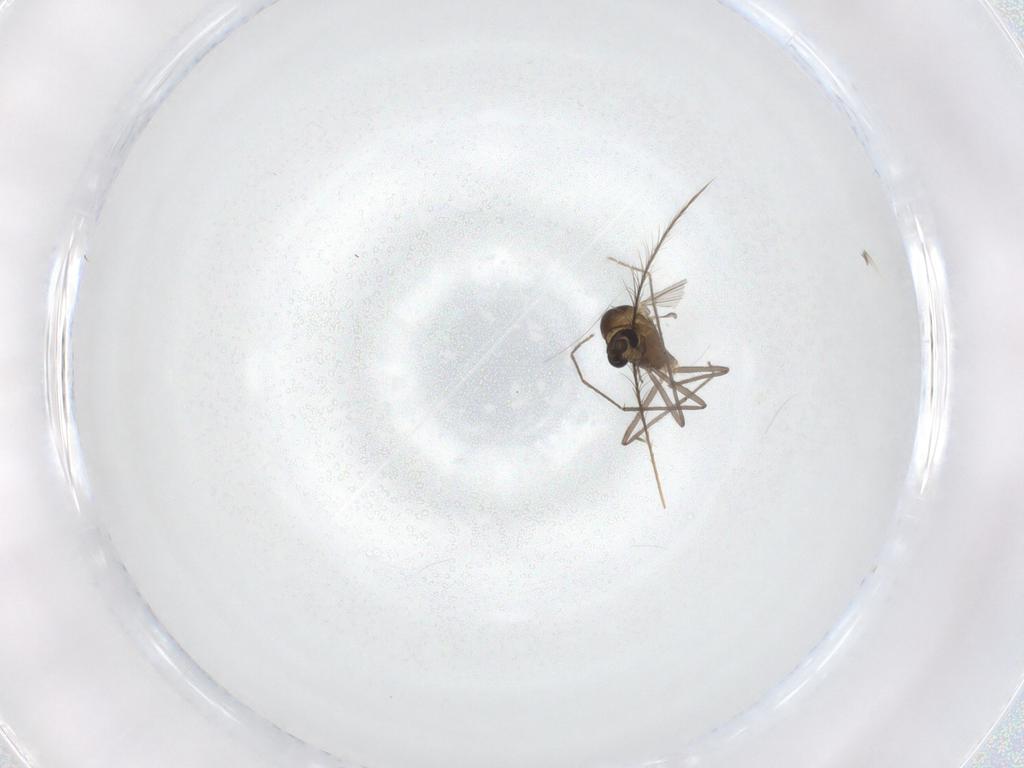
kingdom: Animalia
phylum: Arthropoda
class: Insecta
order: Diptera
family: Chironomidae
